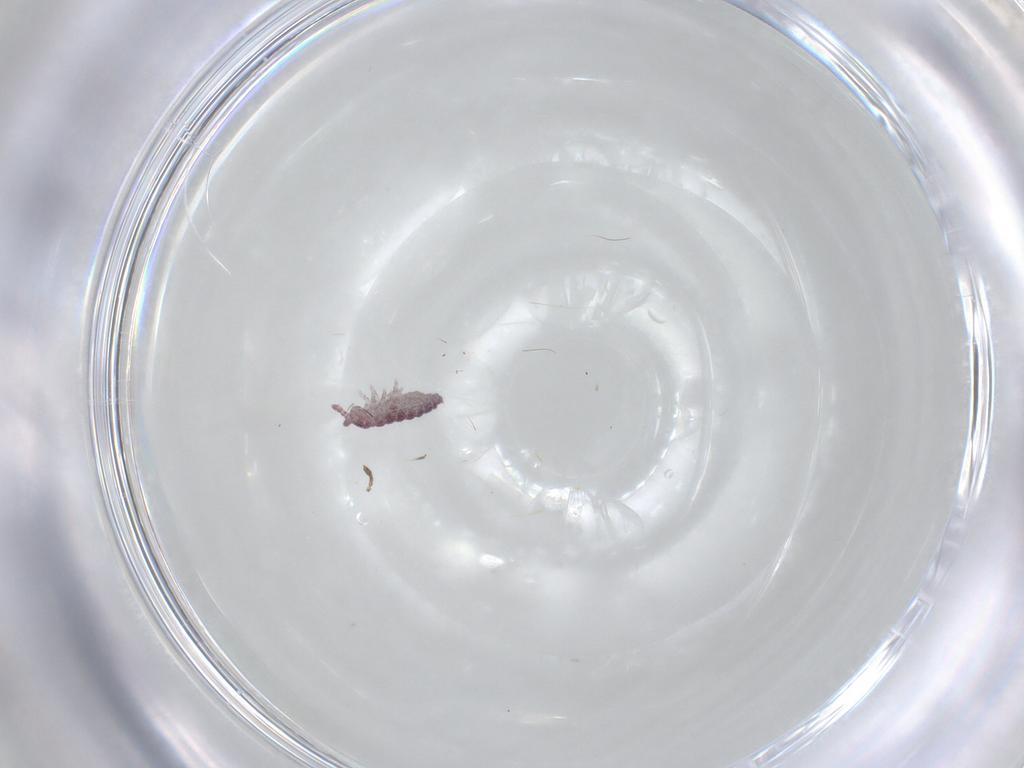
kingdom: Animalia
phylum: Arthropoda
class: Collembola
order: Poduromorpha
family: Hypogastruridae
